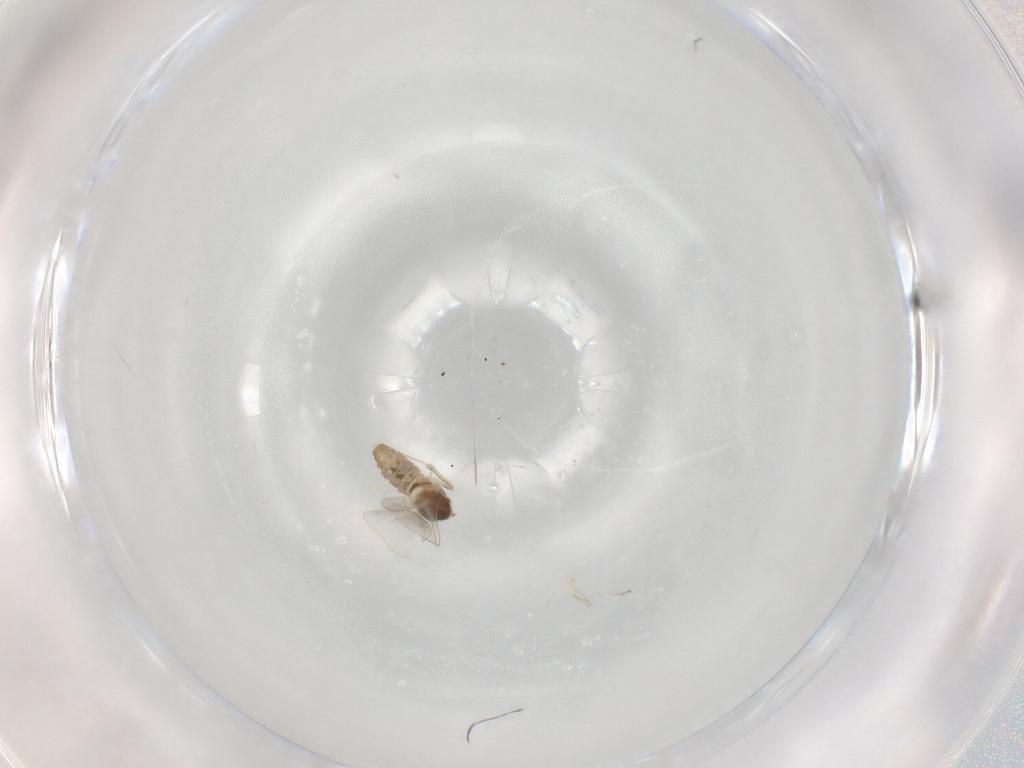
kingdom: Animalia
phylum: Arthropoda
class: Insecta
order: Diptera
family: Cecidomyiidae
